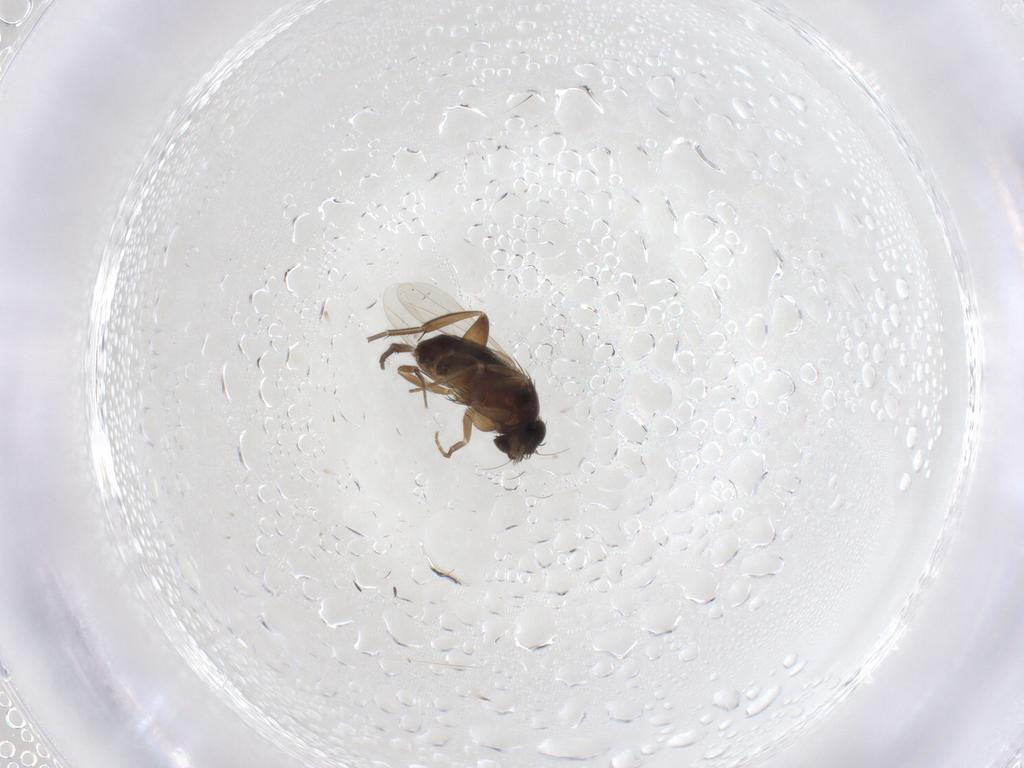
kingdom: Animalia
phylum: Arthropoda
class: Insecta
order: Diptera
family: Phoridae
